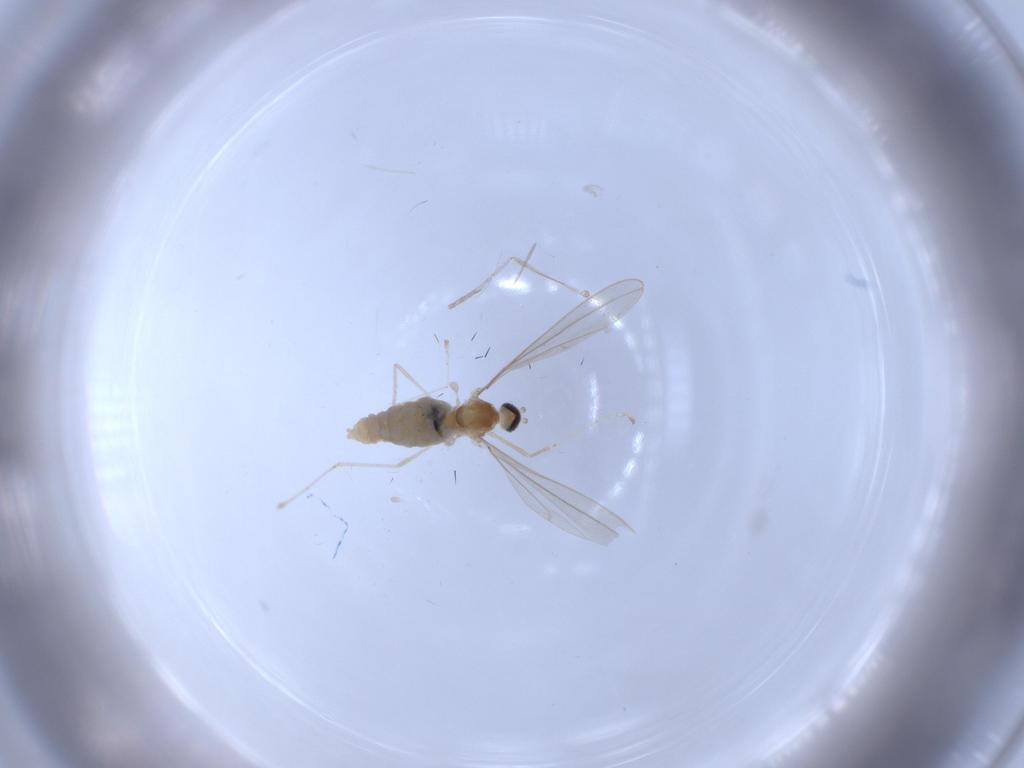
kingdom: Animalia
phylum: Arthropoda
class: Insecta
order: Diptera
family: Cecidomyiidae
